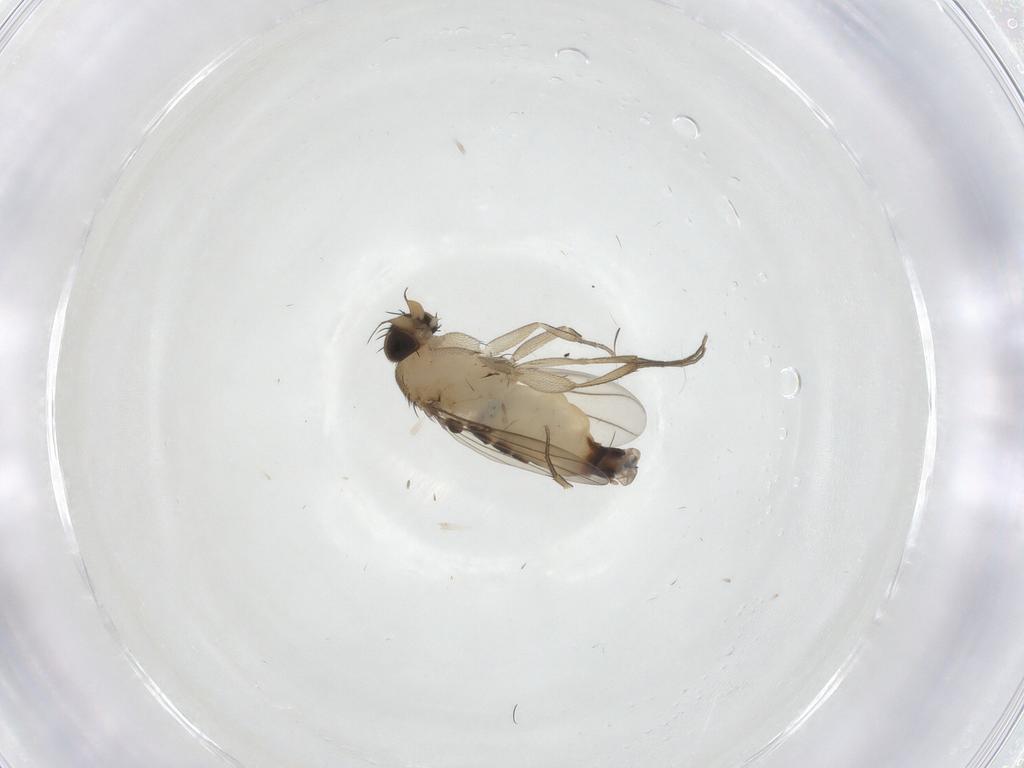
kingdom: Animalia
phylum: Arthropoda
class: Insecta
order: Diptera
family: Phoridae
